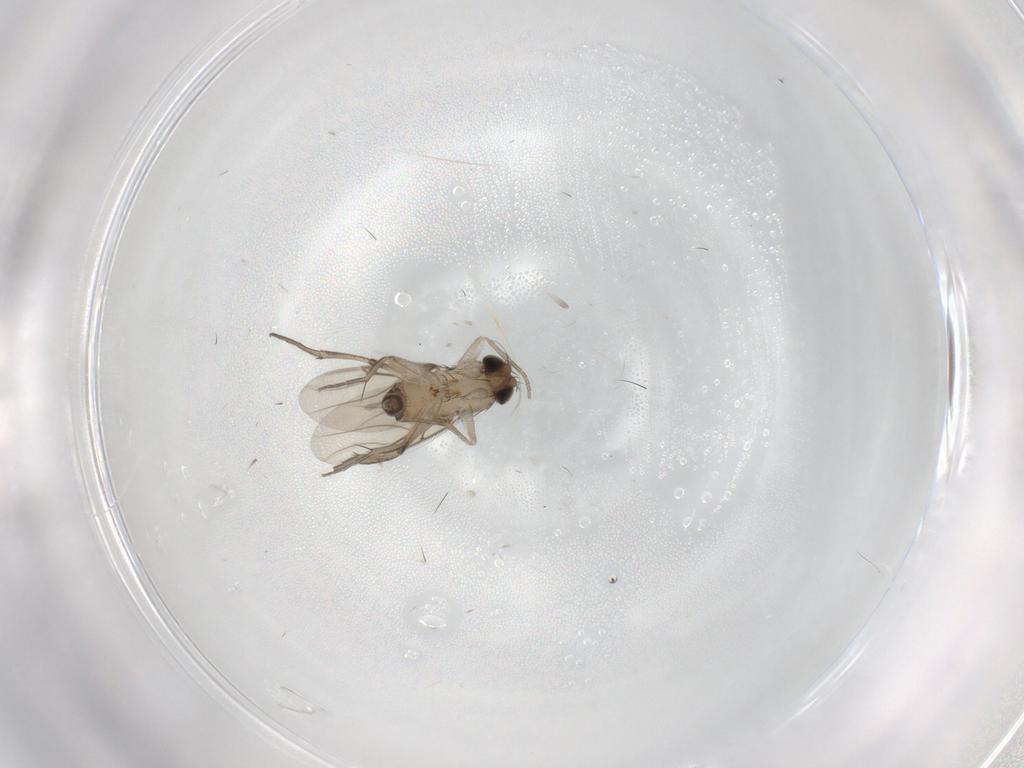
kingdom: Animalia
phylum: Arthropoda
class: Insecta
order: Diptera
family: Phoridae
